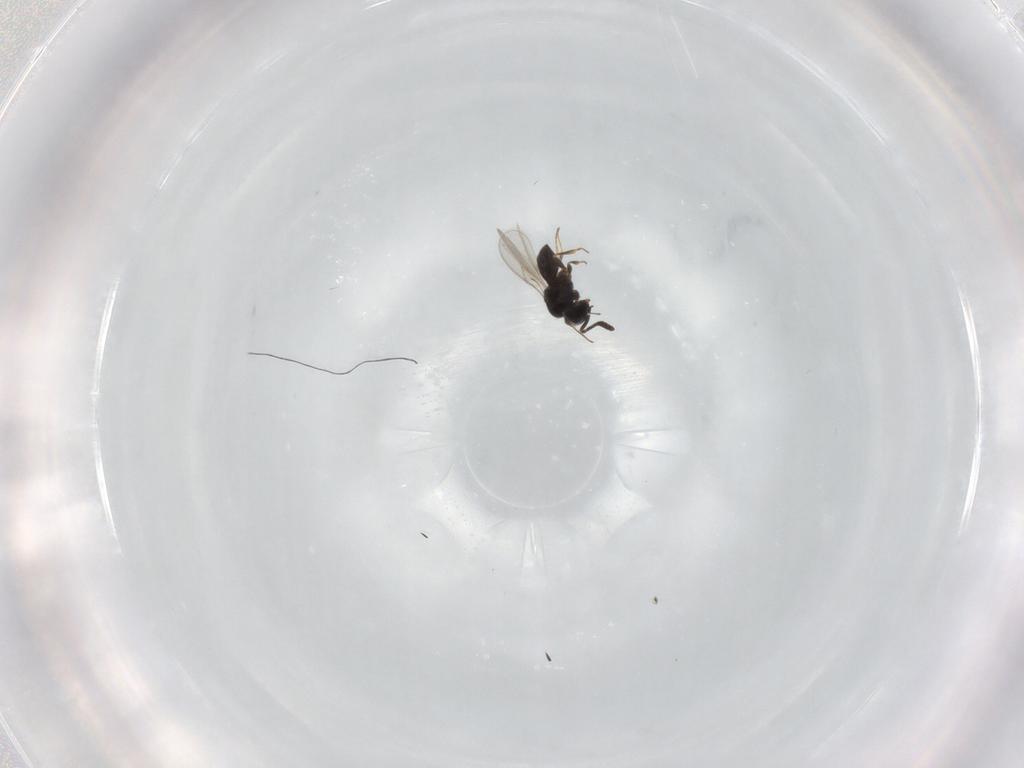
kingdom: Animalia
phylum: Arthropoda
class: Insecta
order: Hymenoptera
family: Scelionidae
